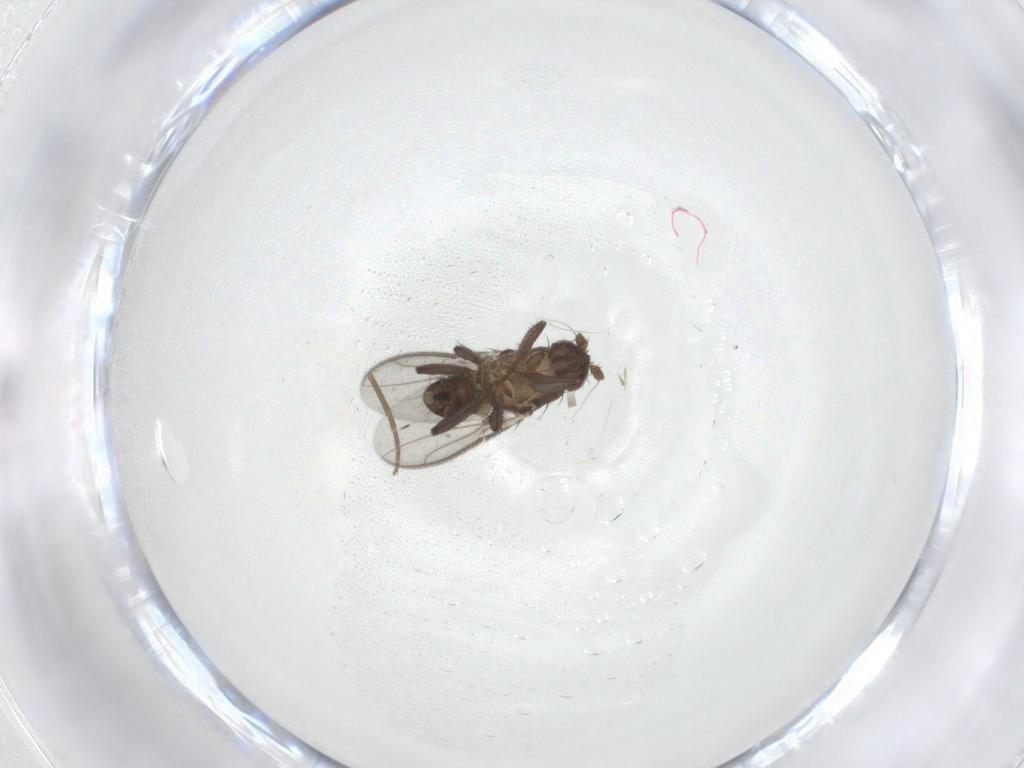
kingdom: Animalia
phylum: Arthropoda
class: Insecta
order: Diptera
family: Sphaeroceridae
